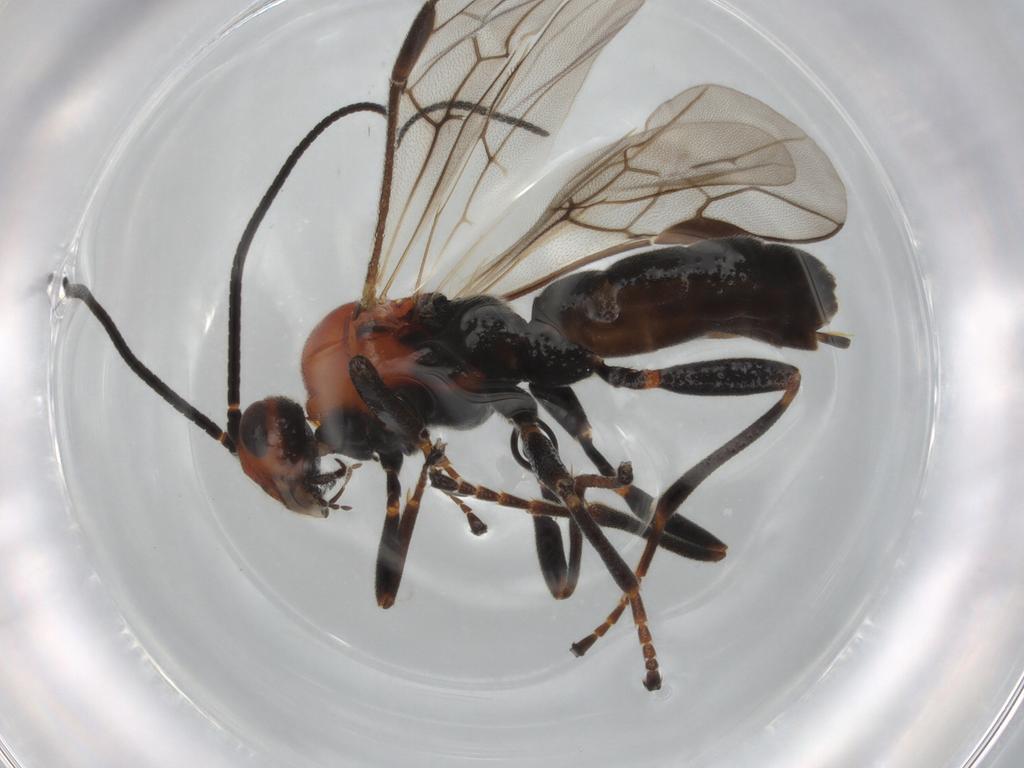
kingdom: Animalia
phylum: Arthropoda
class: Insecta
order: Hymenoptera
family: Braconidae
